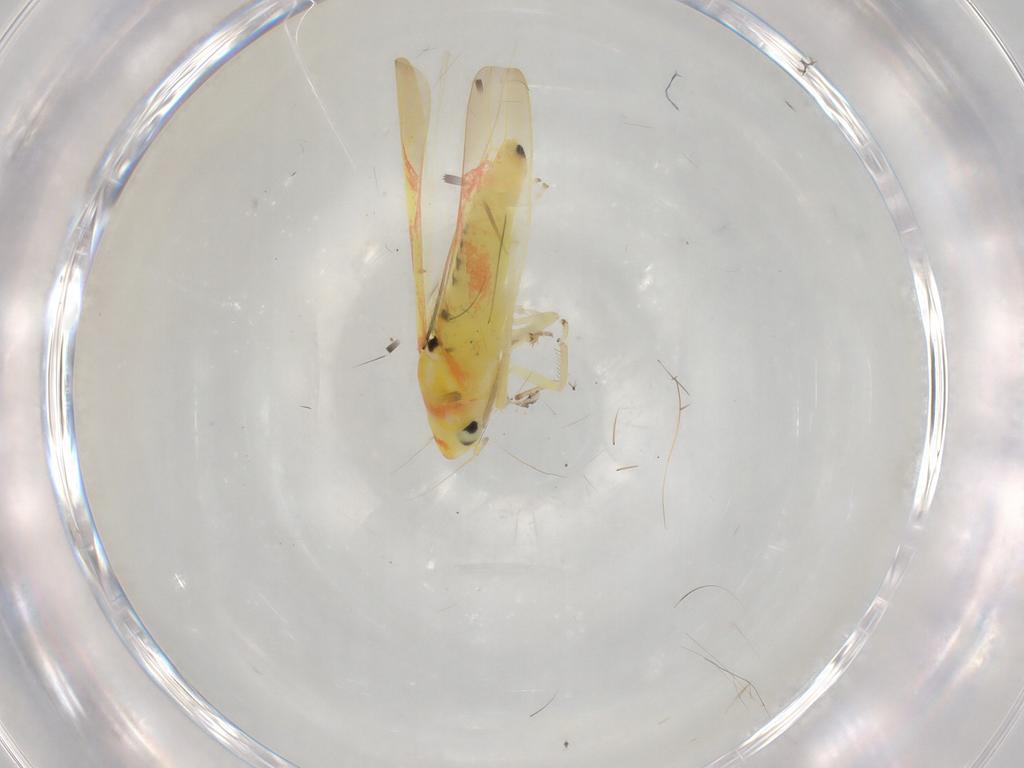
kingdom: Animalia
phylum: Arthropoda
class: Insecta
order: Hemiptera
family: Cicadellidae
